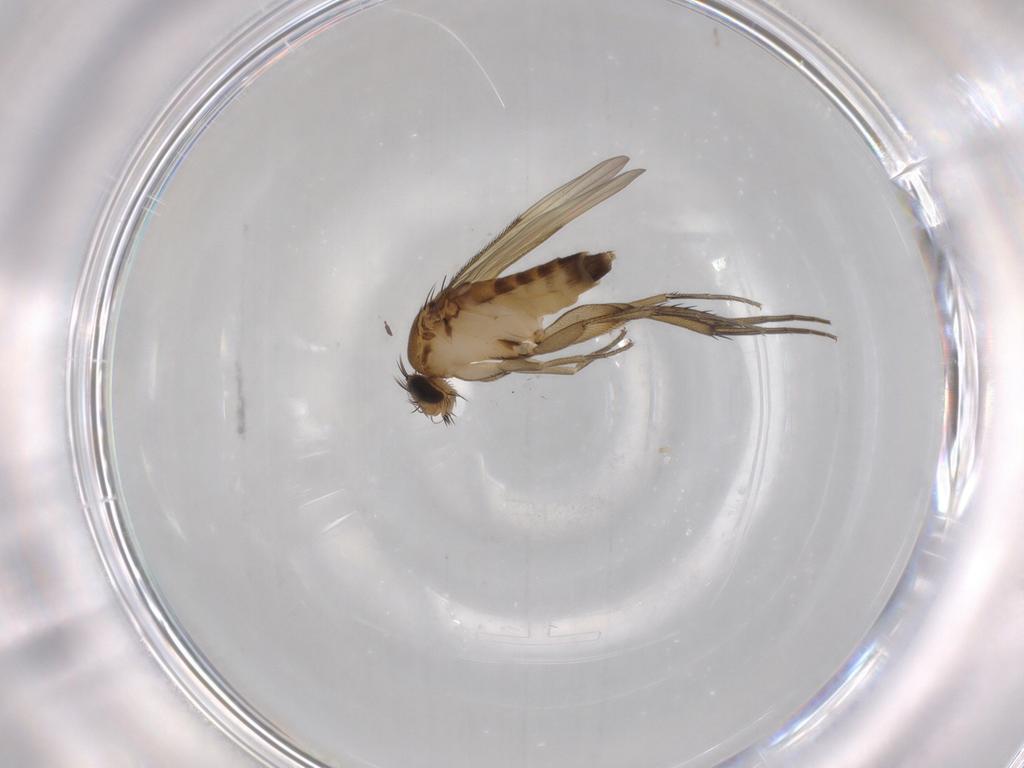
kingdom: Animalia
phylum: Arthropoda
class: Insecta
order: Diptera
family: Phoridae
